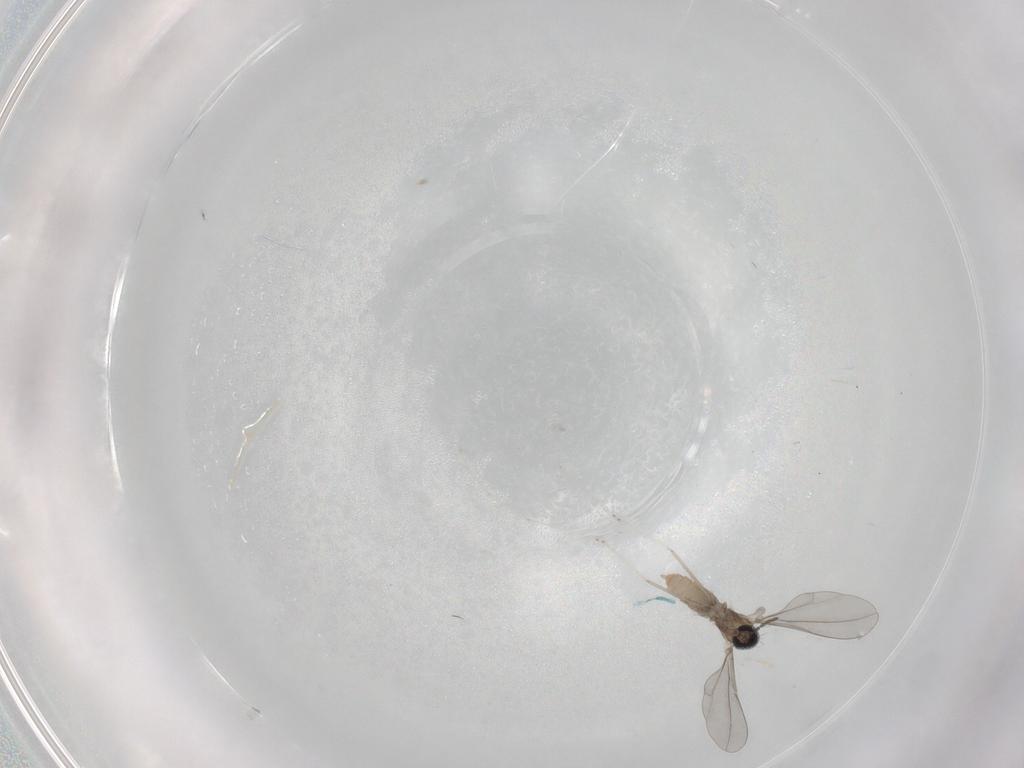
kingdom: Animalia
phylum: Arthropoda
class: Insecta
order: Diptera
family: Cecidomyiidae
